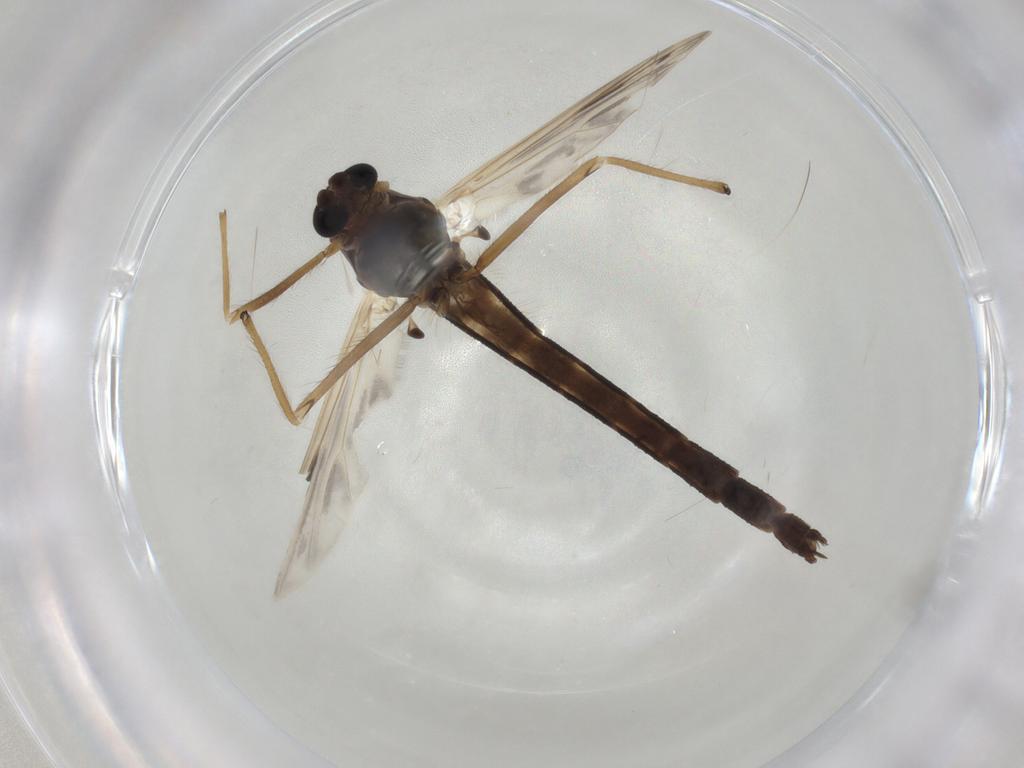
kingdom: Animalia
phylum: Arthropoda
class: Insecta
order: Diptera
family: Chironomidae
